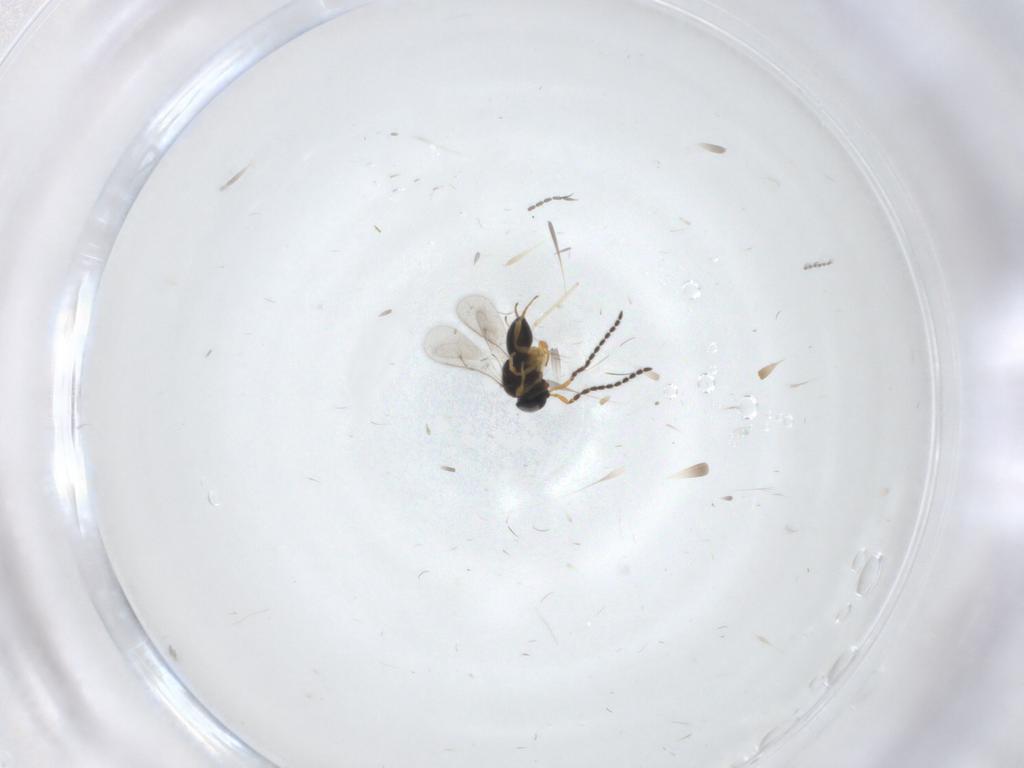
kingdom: Animalia
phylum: Arthropoda
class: Insecta
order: Hymenoptera
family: Scelionidae
